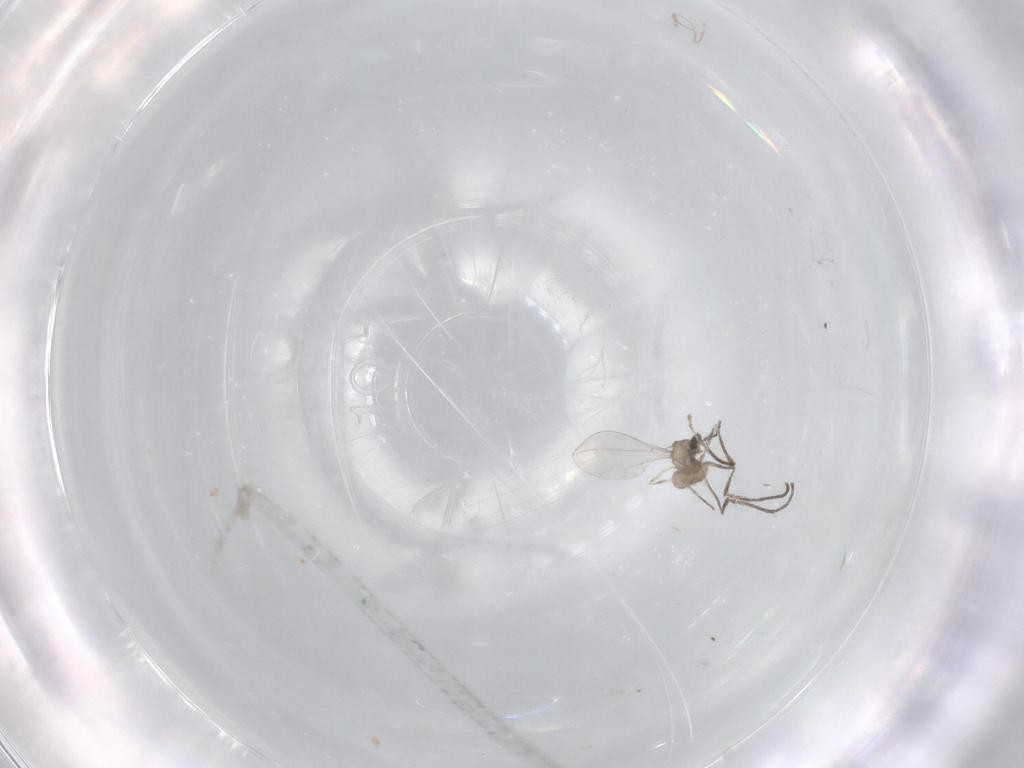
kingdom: Animalia
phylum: Arthropoda
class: Insecta
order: Diptera
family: Cecidomyiidae
